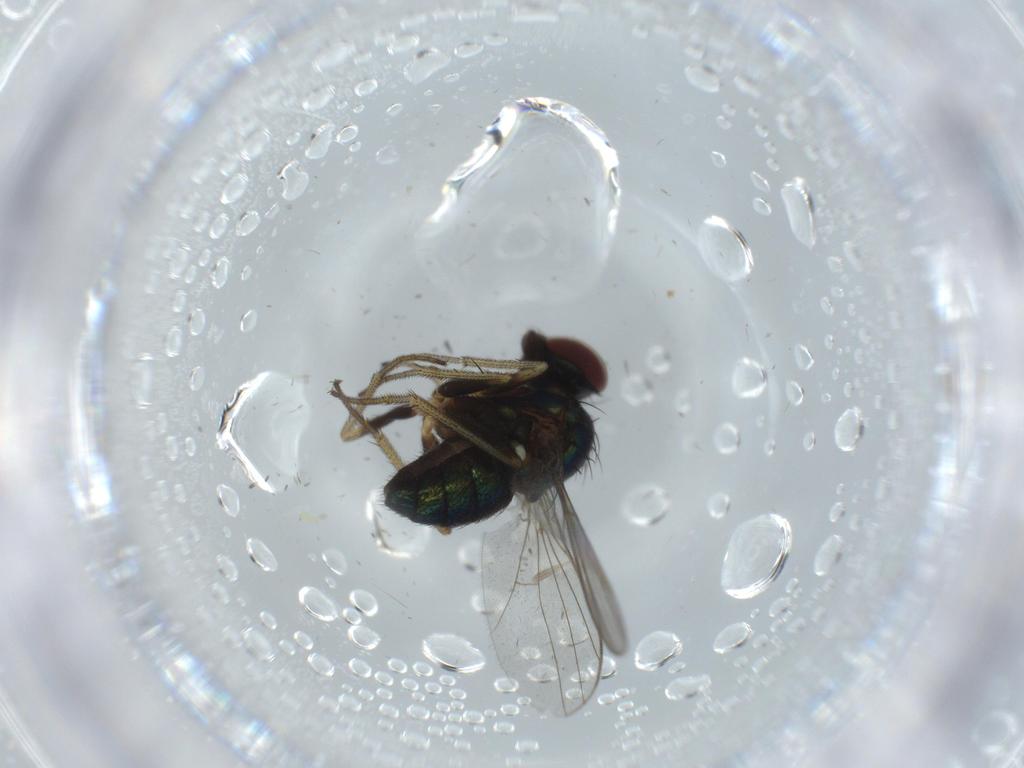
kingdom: Animalia
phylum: Arthropoda
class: Insecta
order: Diptera
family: Dolichopodidae
